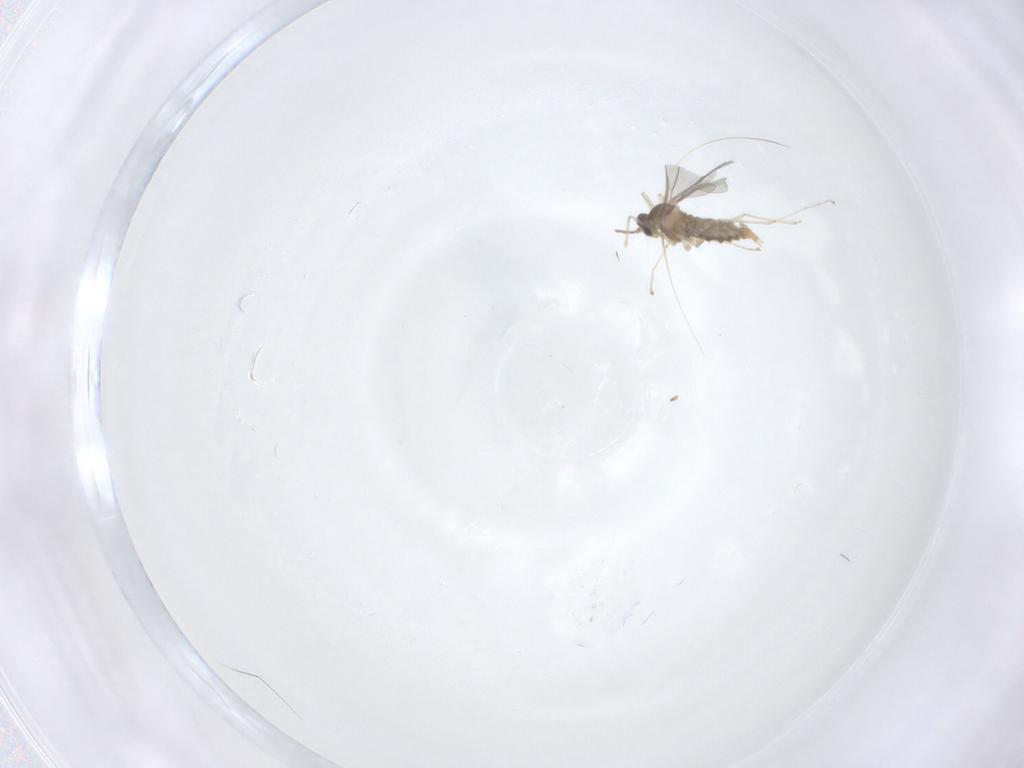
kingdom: Animalia
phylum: Arthropoda
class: Insecta
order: Diptera
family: Cecidomyiidae
